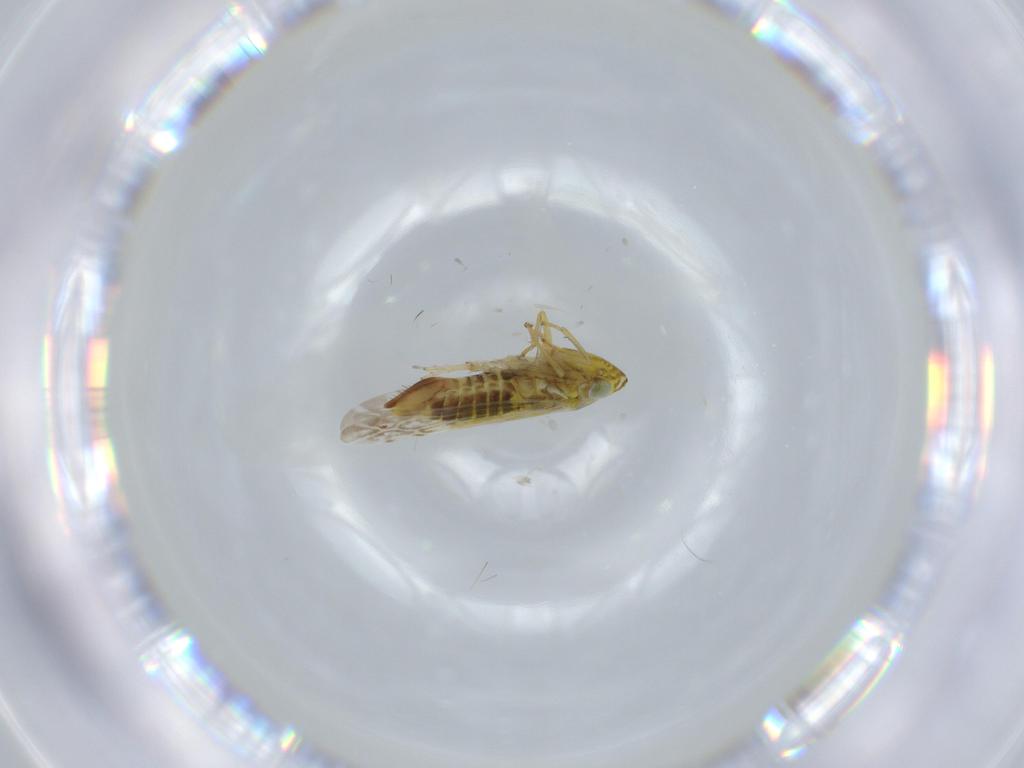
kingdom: Animalia
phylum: Arthropoda
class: Insecta
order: Hemiptera
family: Cicadellidae
